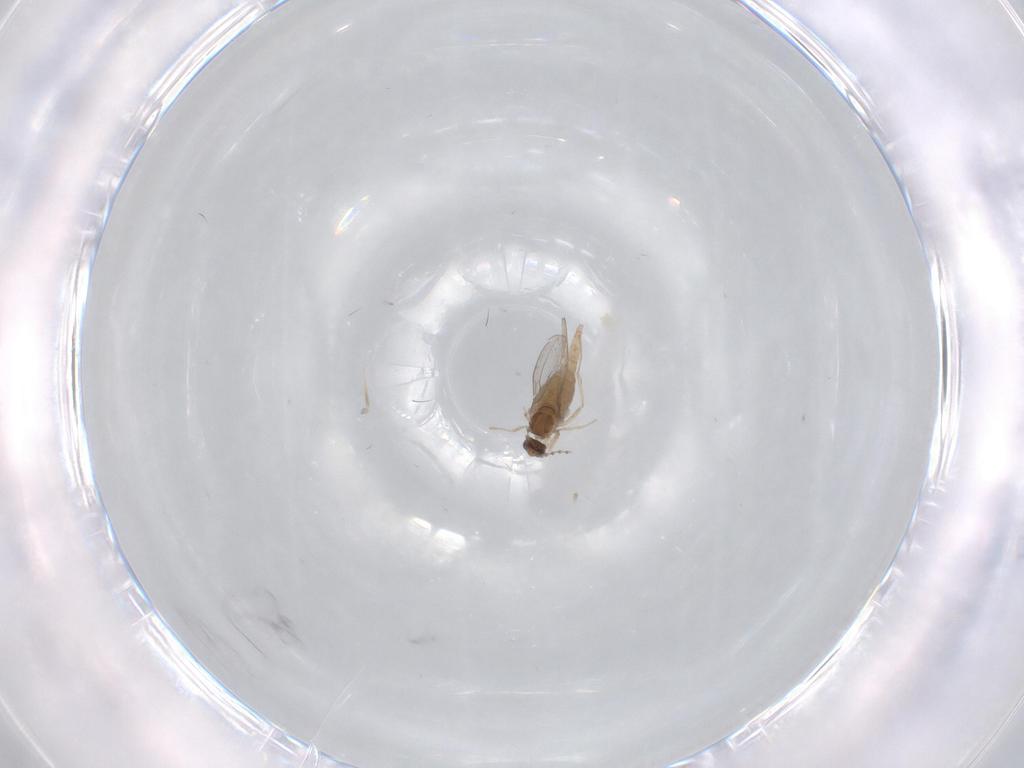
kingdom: Animalia
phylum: Arthropoda
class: Insecta
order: Diptera
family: Cecidomyiidae
